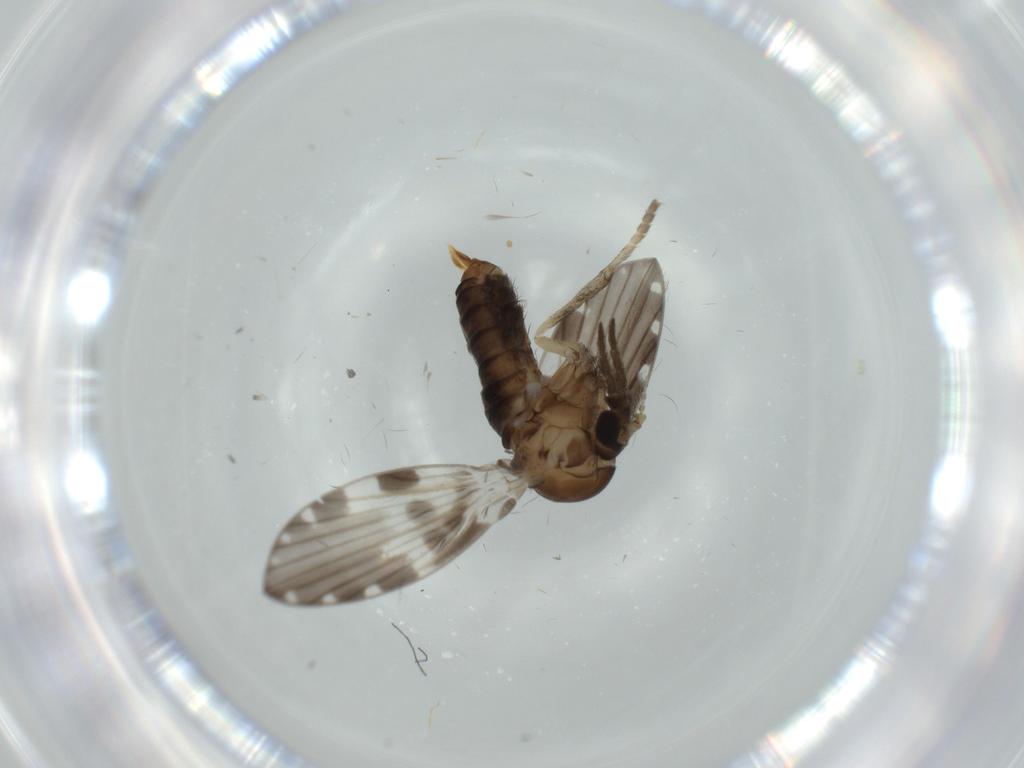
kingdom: Animalia
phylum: Arthropoda
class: Insecta
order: Diptera
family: Psychodidae
